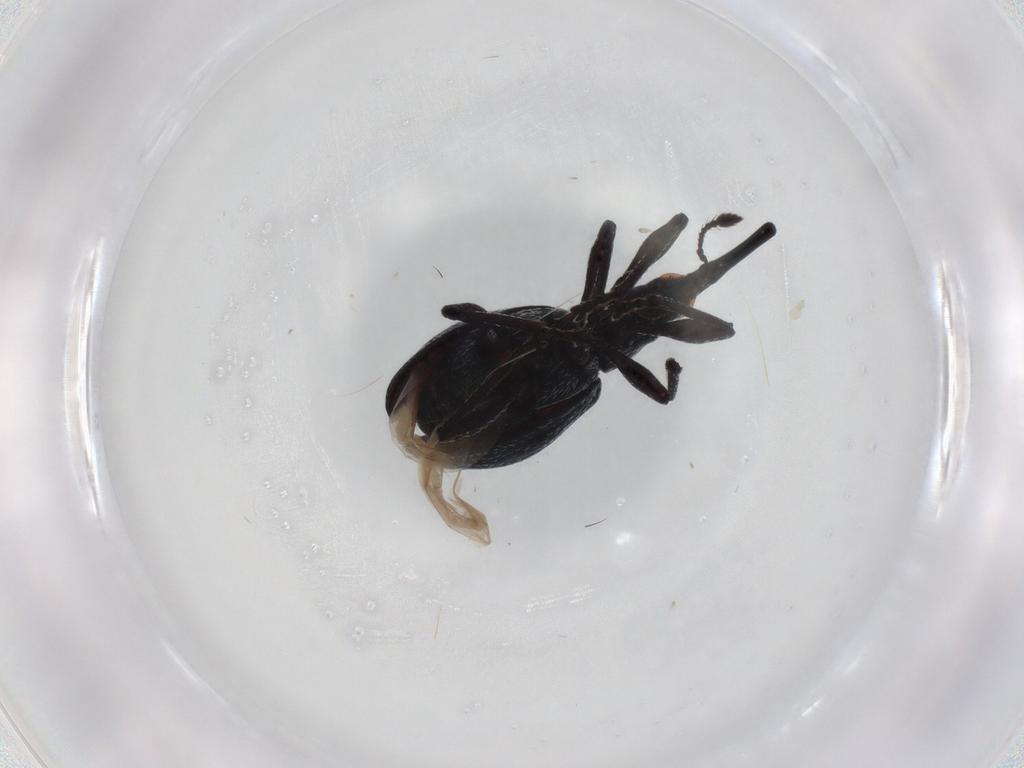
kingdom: Animalia
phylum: Arthropoda
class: Insecta
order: Coleoptera
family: Brentidae
